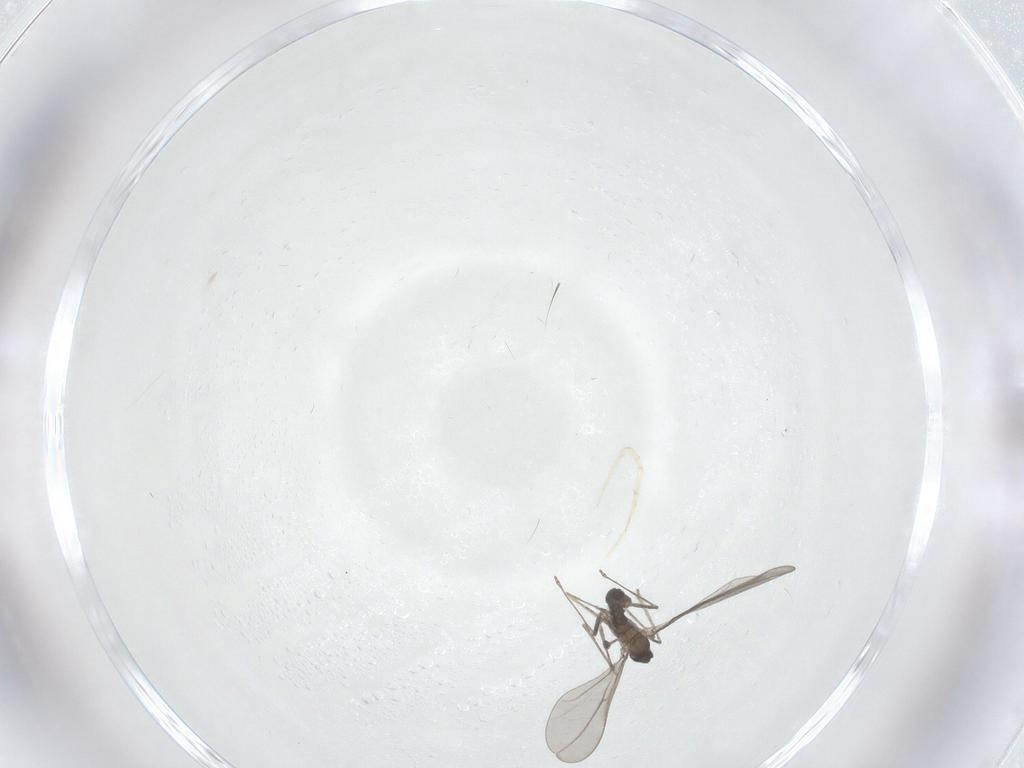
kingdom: Animalia
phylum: Arthropoda
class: Insecta
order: Diptera
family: Cecidomyiidae
